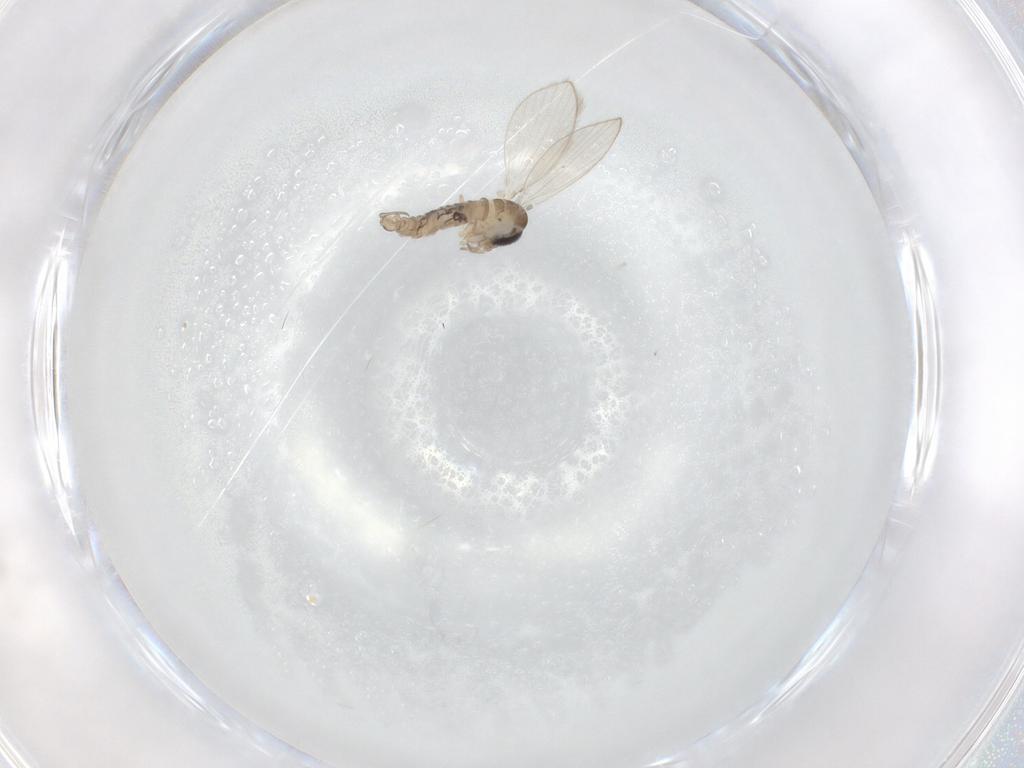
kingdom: Animalia
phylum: Arthropoda
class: Insecta
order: Diptera
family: Psychodidae
